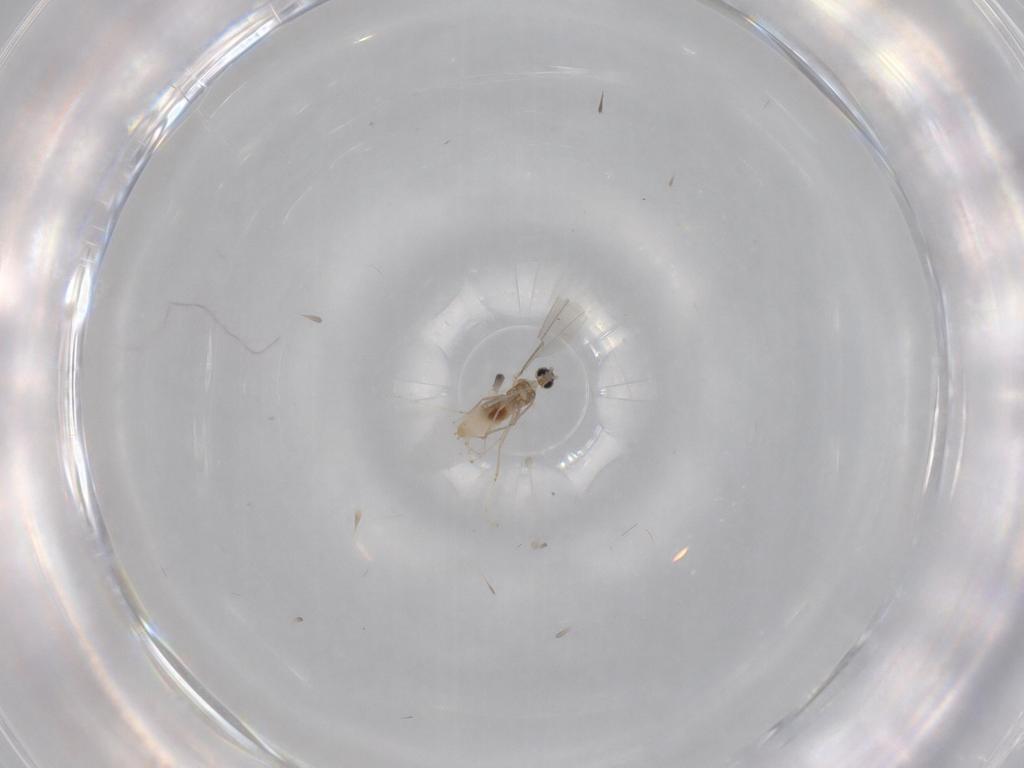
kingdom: Animalia
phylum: Arthropoda
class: Insecta
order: Diptera
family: Cecidomyiidae
